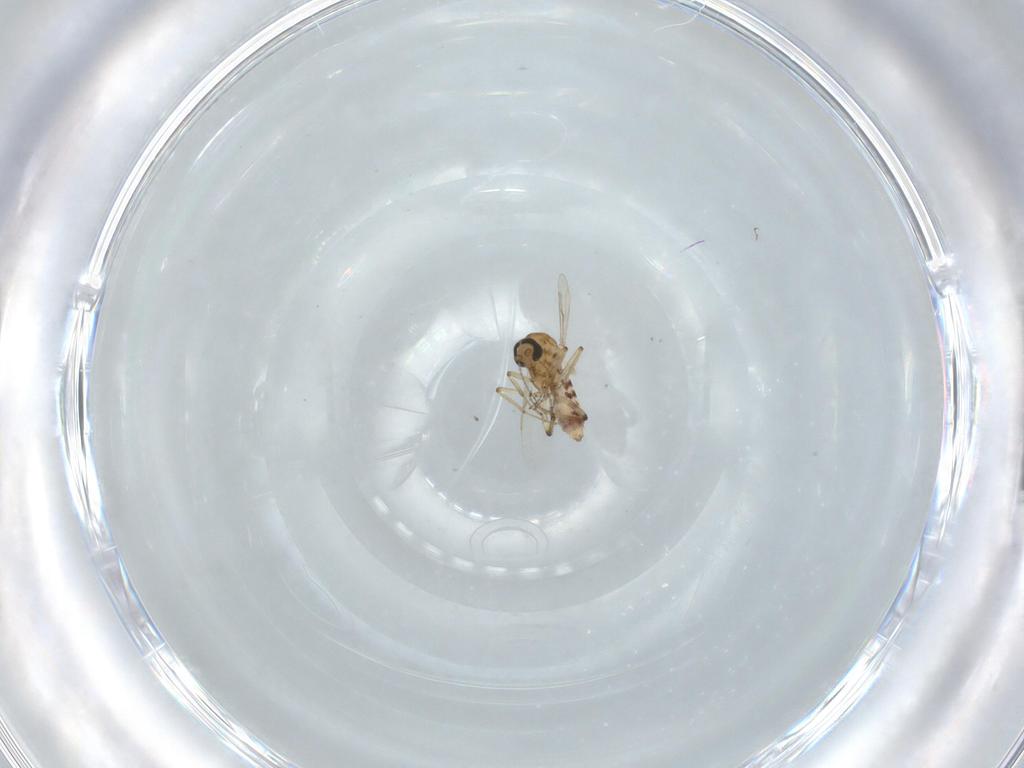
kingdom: Animalia
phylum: Arthropoda
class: Insecta
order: Diptera
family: Ceratopogonidae
